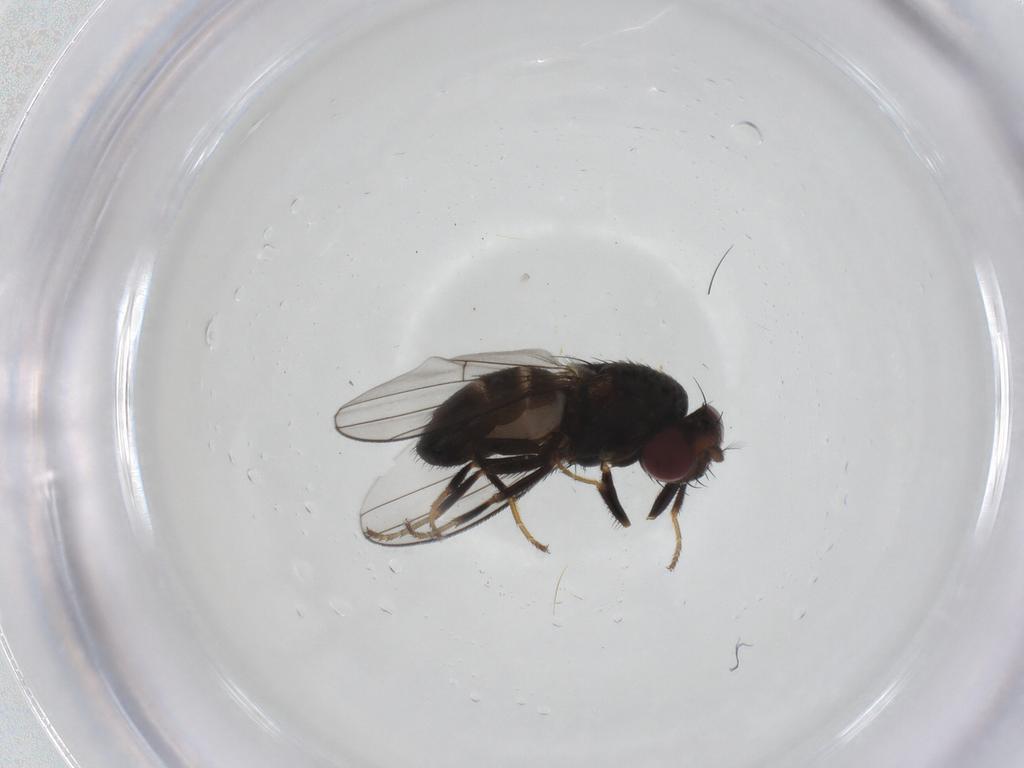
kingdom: Animalia
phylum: Arthropoda
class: Insecta
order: Diptera
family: Ephydridae
